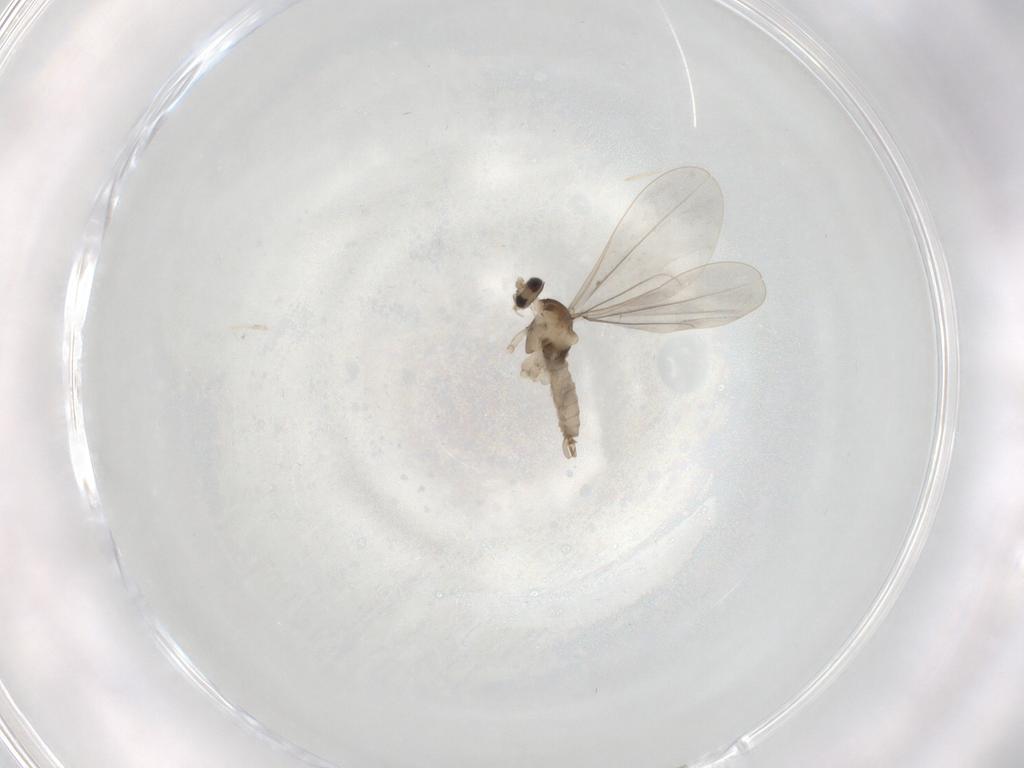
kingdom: Animalia
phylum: Arthropoda
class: Insecta
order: Diptera
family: Cecidomyiidae
